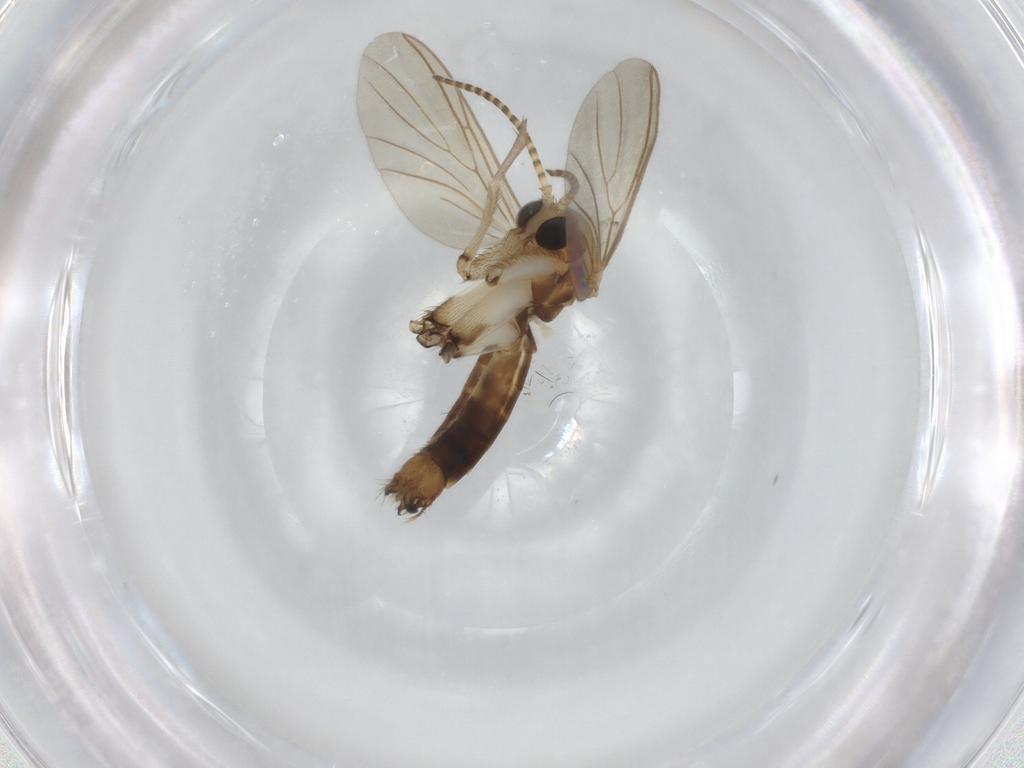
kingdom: Animalia
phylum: Arthropoda
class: Insecta
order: Diptera
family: Mycetophilidae
